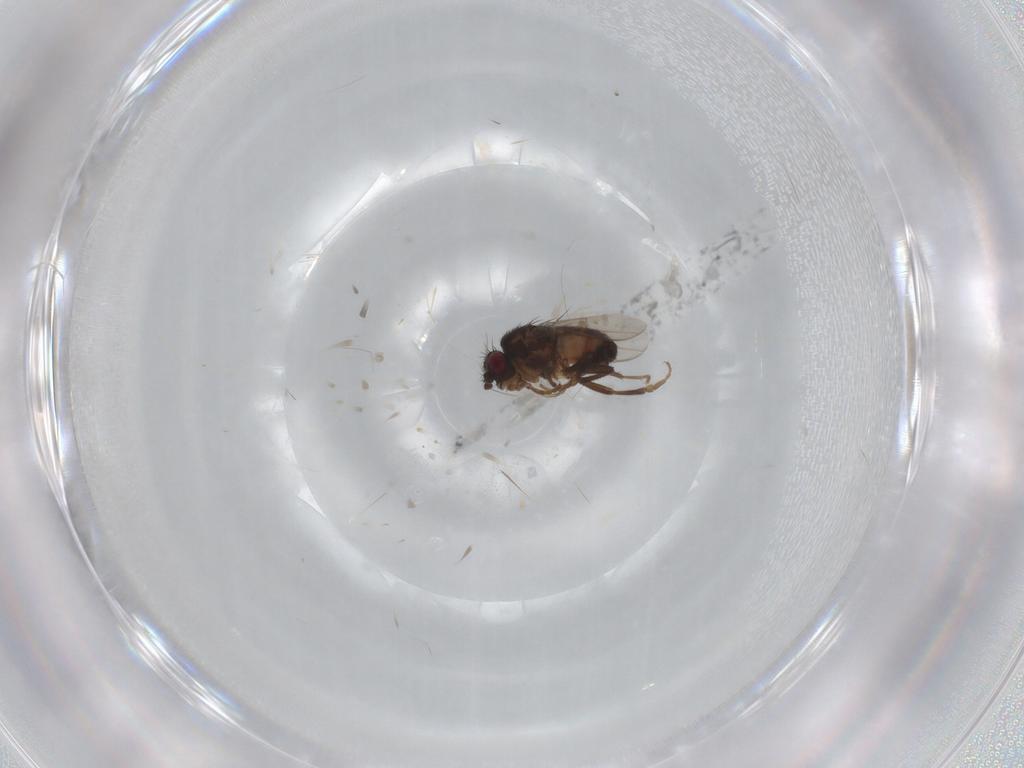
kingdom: Animalia
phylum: Arthropoda
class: Insecta
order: Diptera
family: Sphaeroceridae
